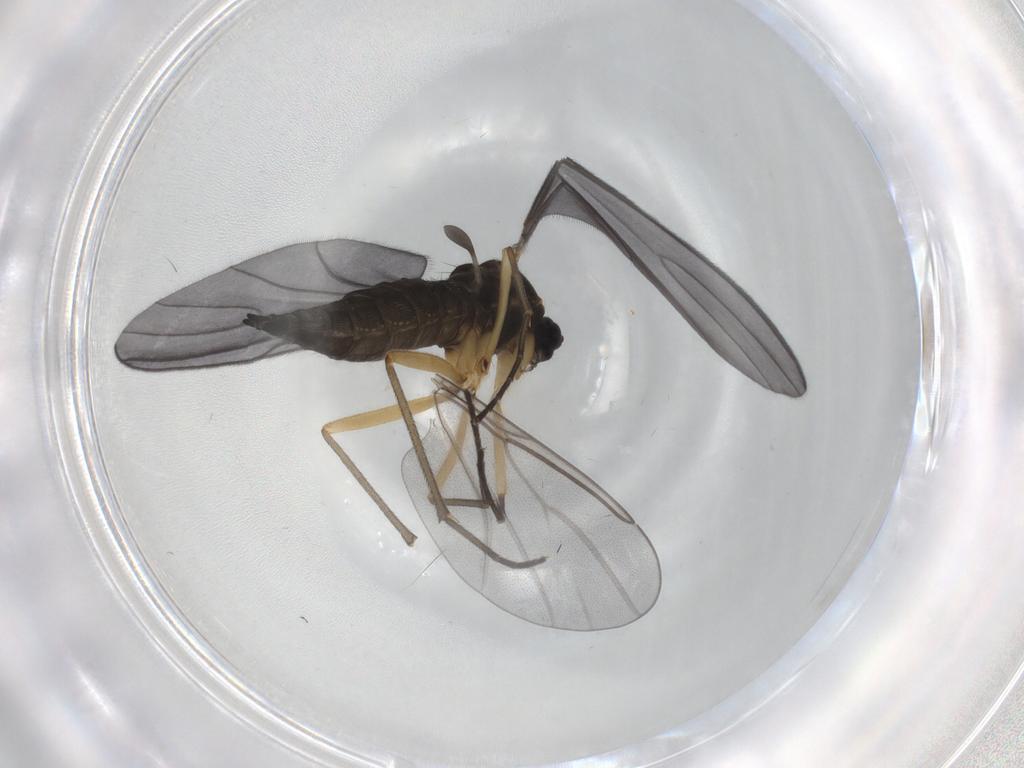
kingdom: Animalia
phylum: Arthropoda
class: Insecta
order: Diptera
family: Sciaridae
